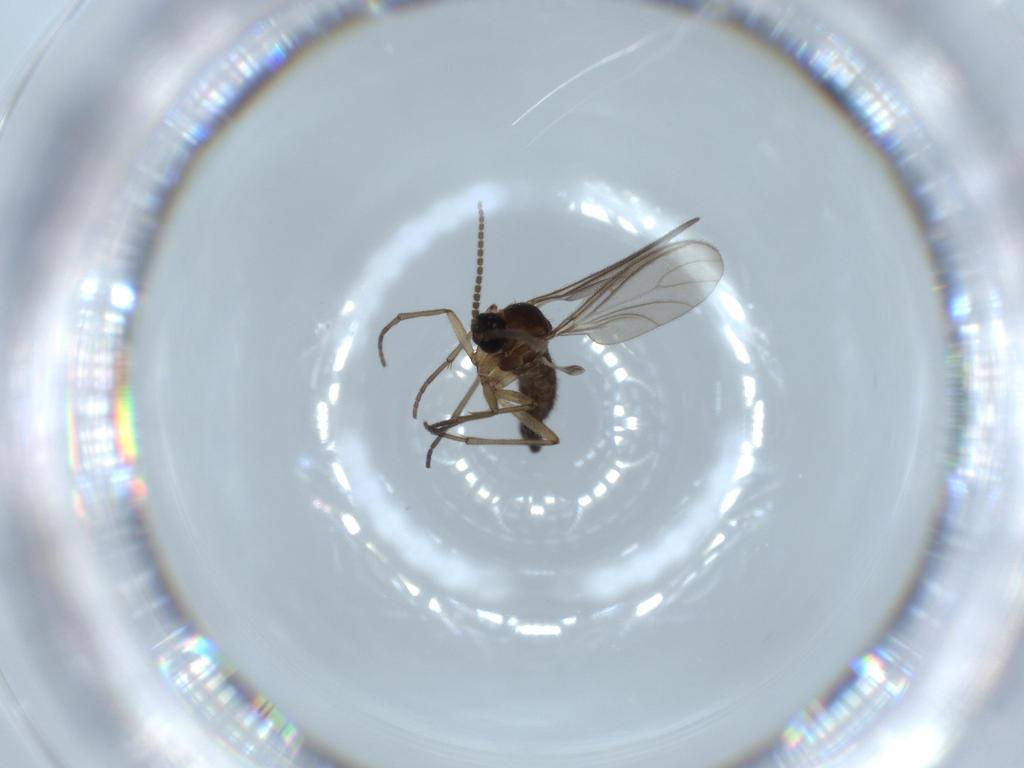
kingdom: Animalia
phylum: Arthropoda
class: Insecta
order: Diptera
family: Sciaridae
